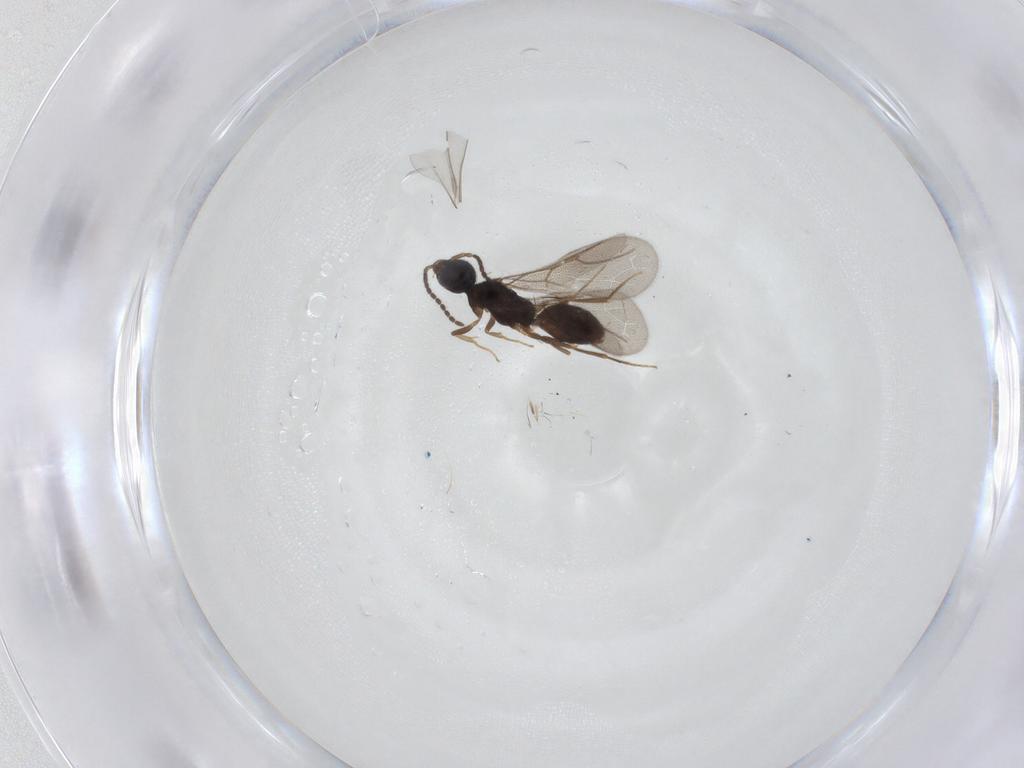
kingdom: Animalia
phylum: Arthropoda
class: Insecta
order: Hymenoptera
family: Bethylidae
